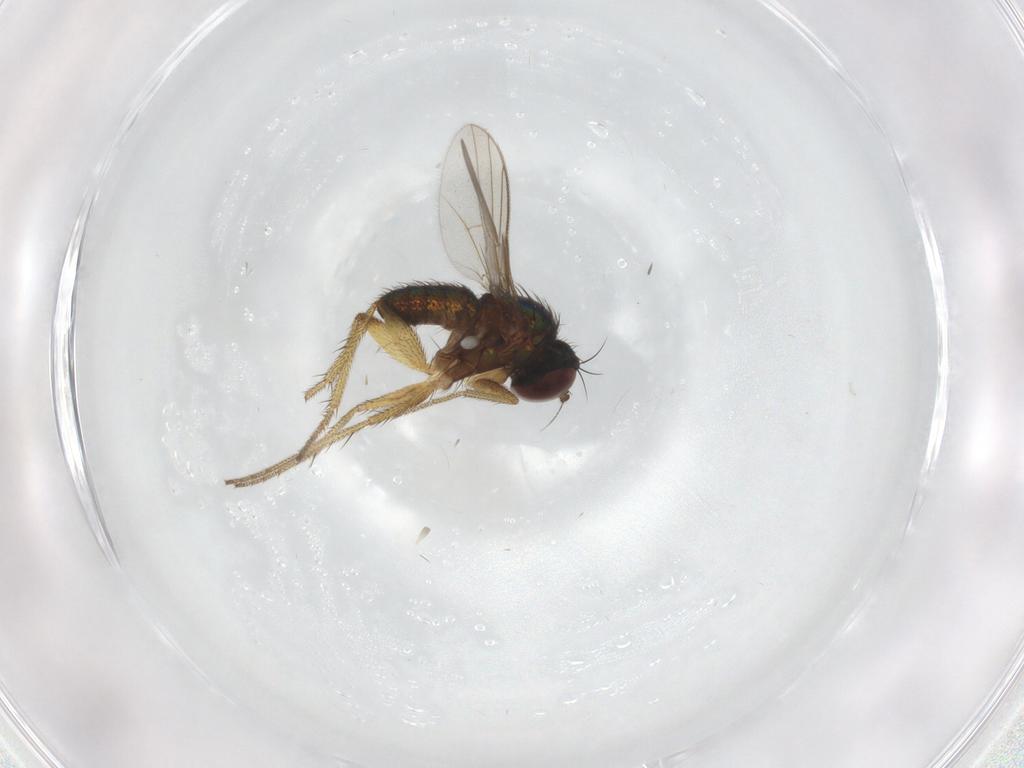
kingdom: Animalia
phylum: Arthropoda
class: Insecta
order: Diptera
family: Dolichopodidae
